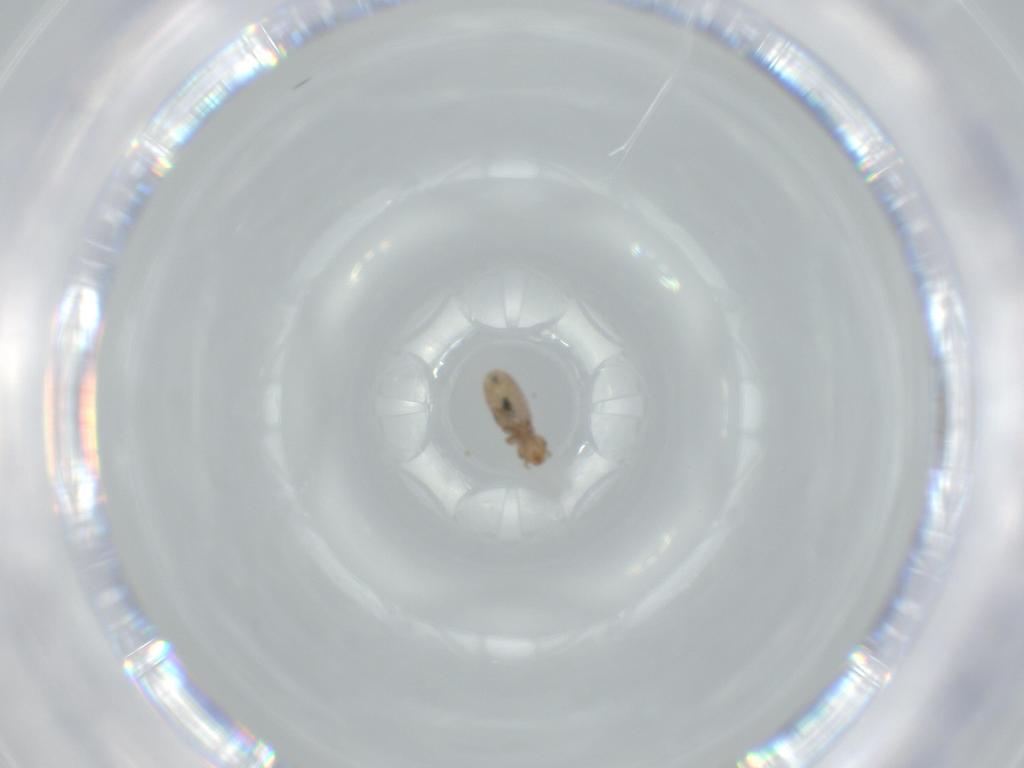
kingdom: Animalia
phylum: Arthropoda
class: Insecta
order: Psocodea
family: Liposcelididae
